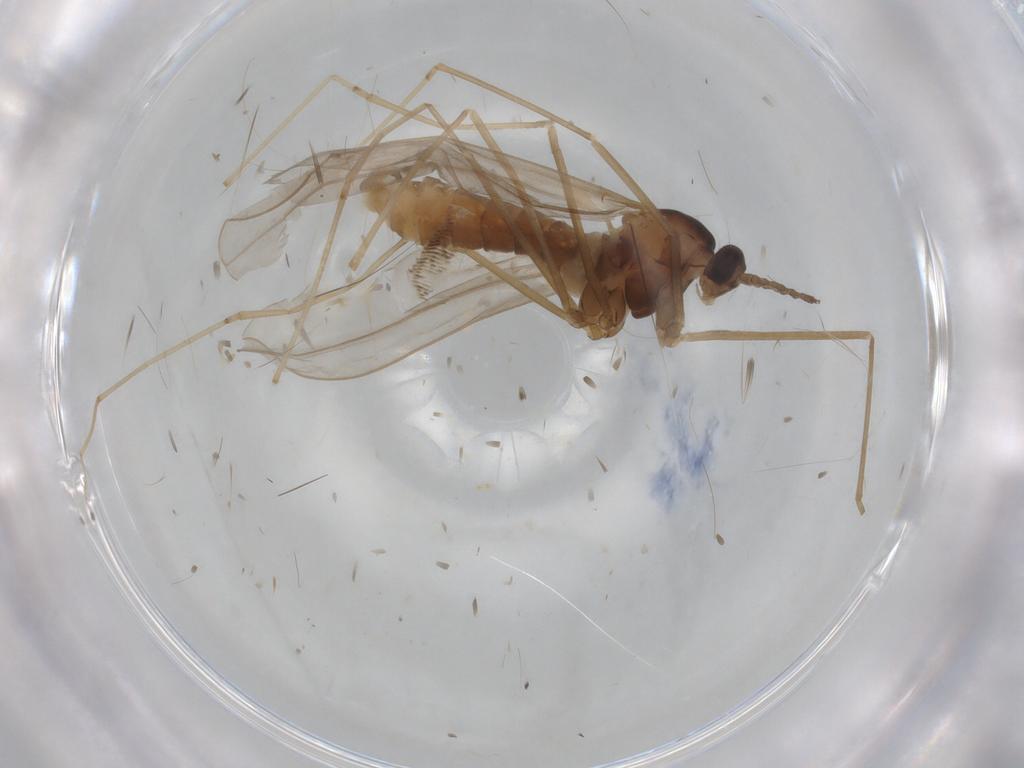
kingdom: Animalia
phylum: Arthropoda
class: Insecta
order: Diptera
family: Cecidomyiidae
